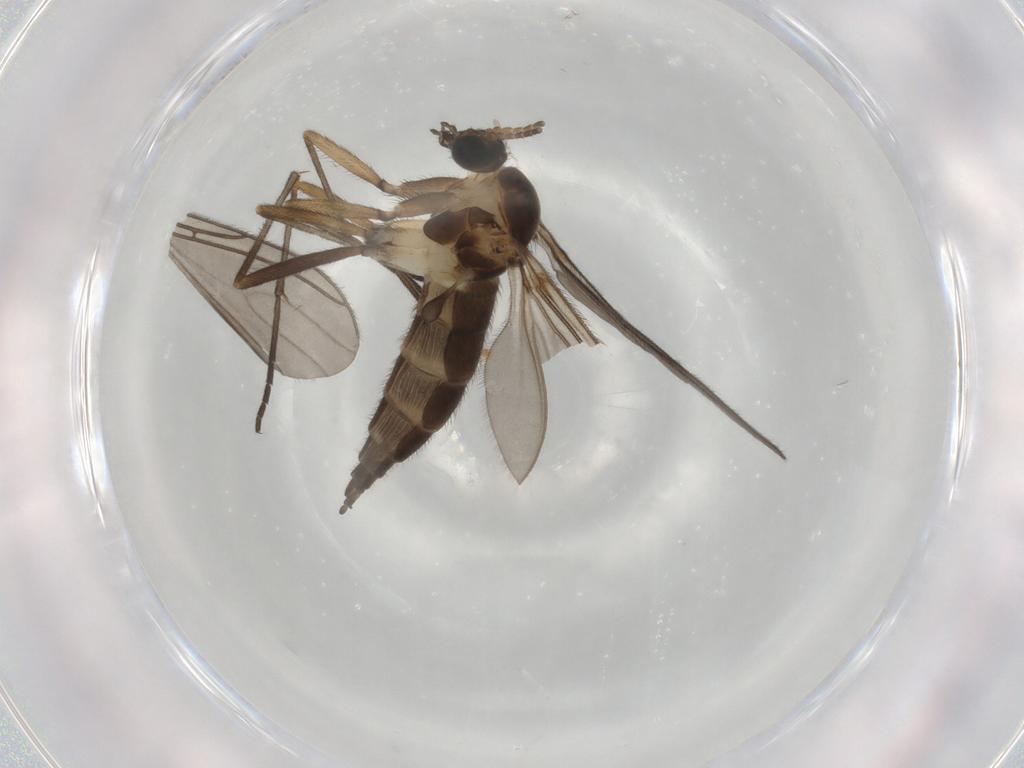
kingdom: Animalia
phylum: Arthropoda
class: Insecta
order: Diptera
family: Sciaridae
